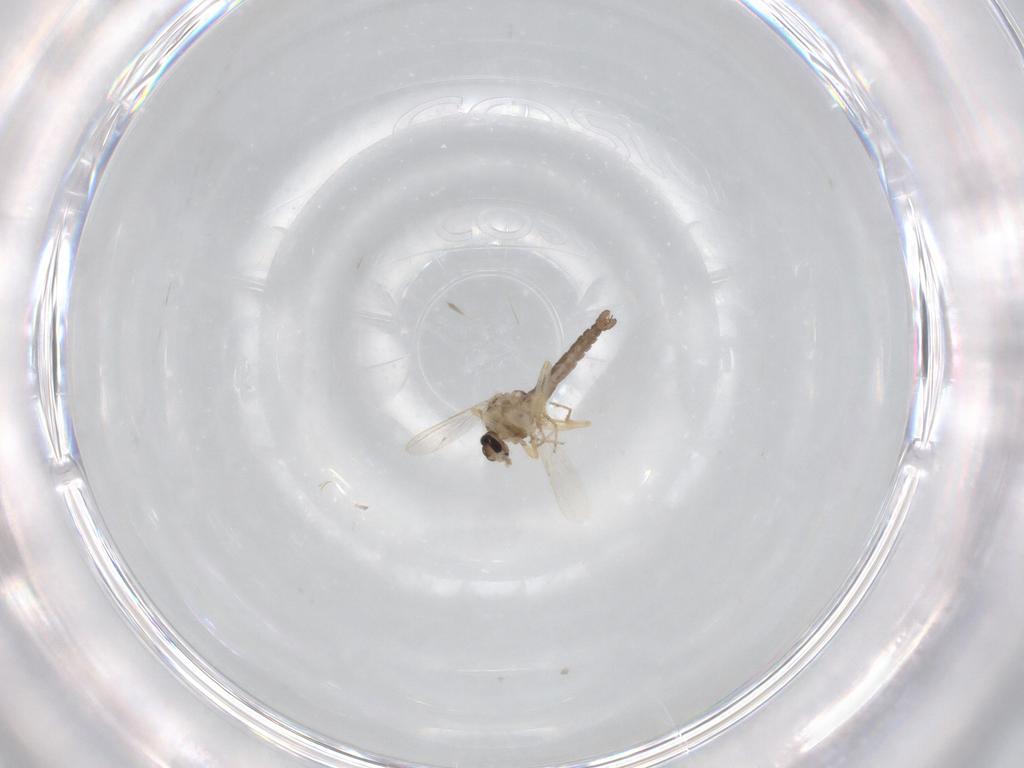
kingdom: Animalia
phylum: Arthropoda
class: Insecta
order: Diptera
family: Ceratopogonidae
